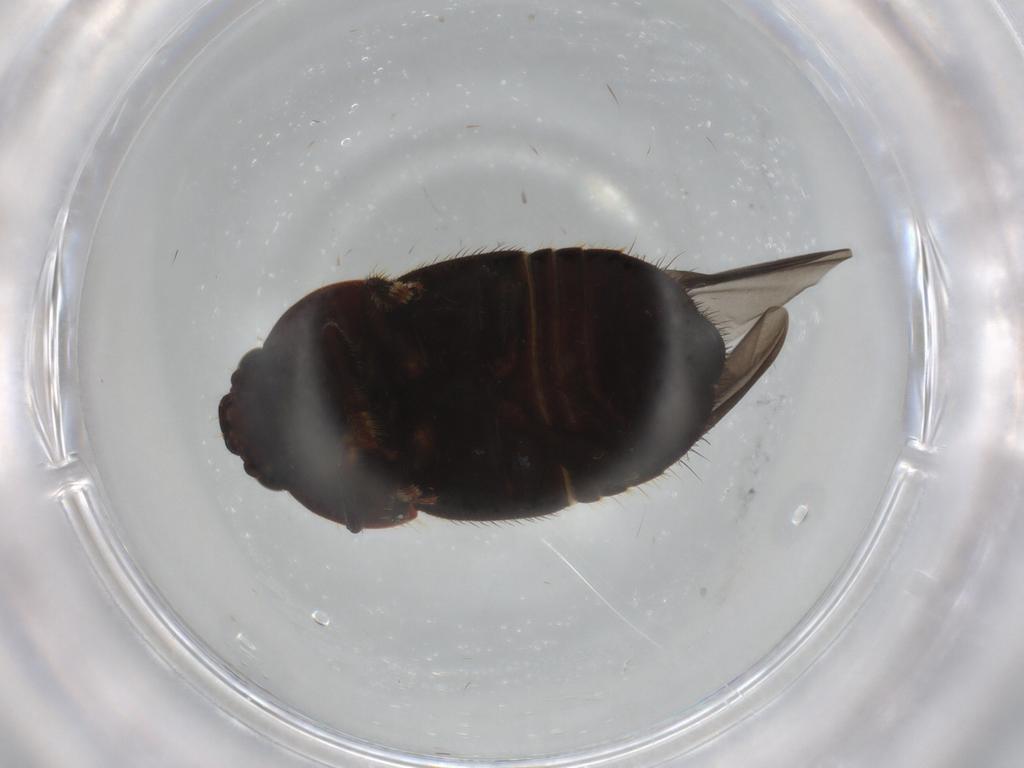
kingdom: Animalia
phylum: Arthropoda
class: Insecta
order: Coleoptera
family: Nitidulidae
